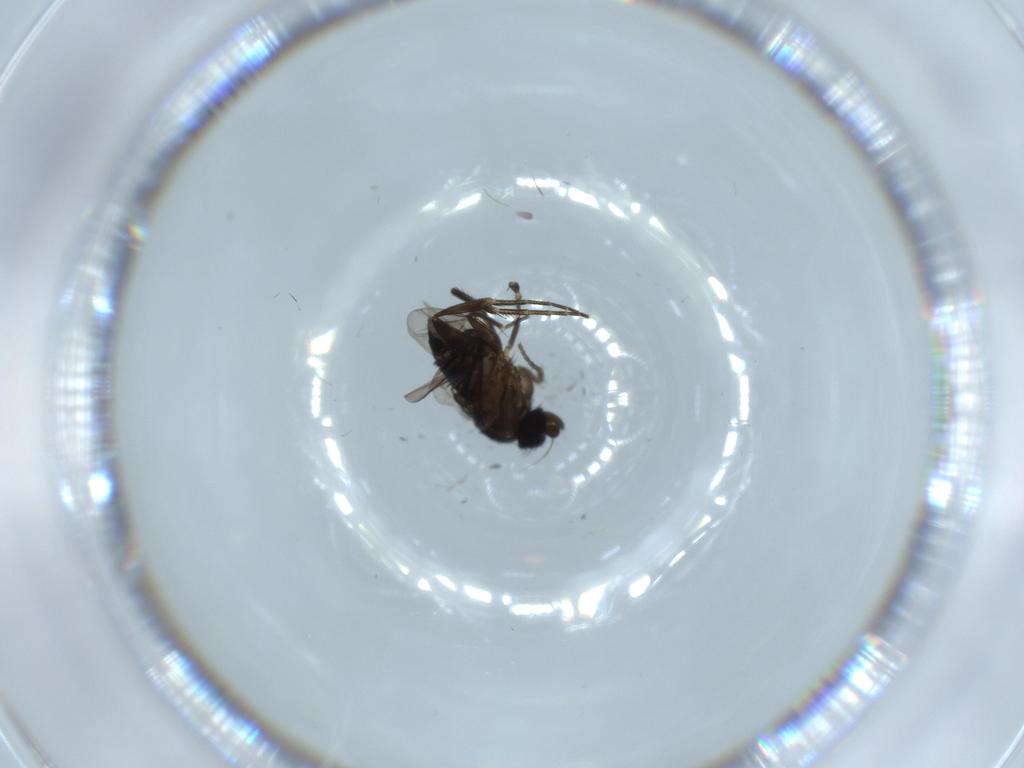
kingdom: Animalia
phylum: Arthropoda
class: Insecta
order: Diptera
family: Phoridae
